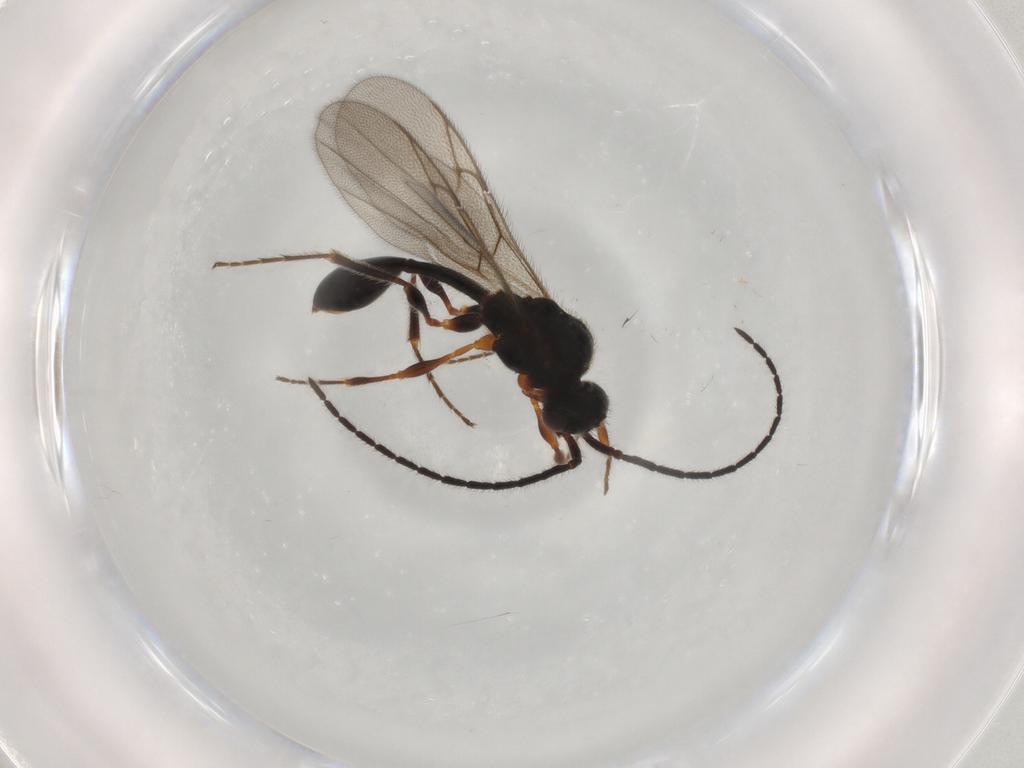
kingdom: Animalia
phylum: Arthropoda
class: Insecta
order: Hymenoptera
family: Diapriidae
